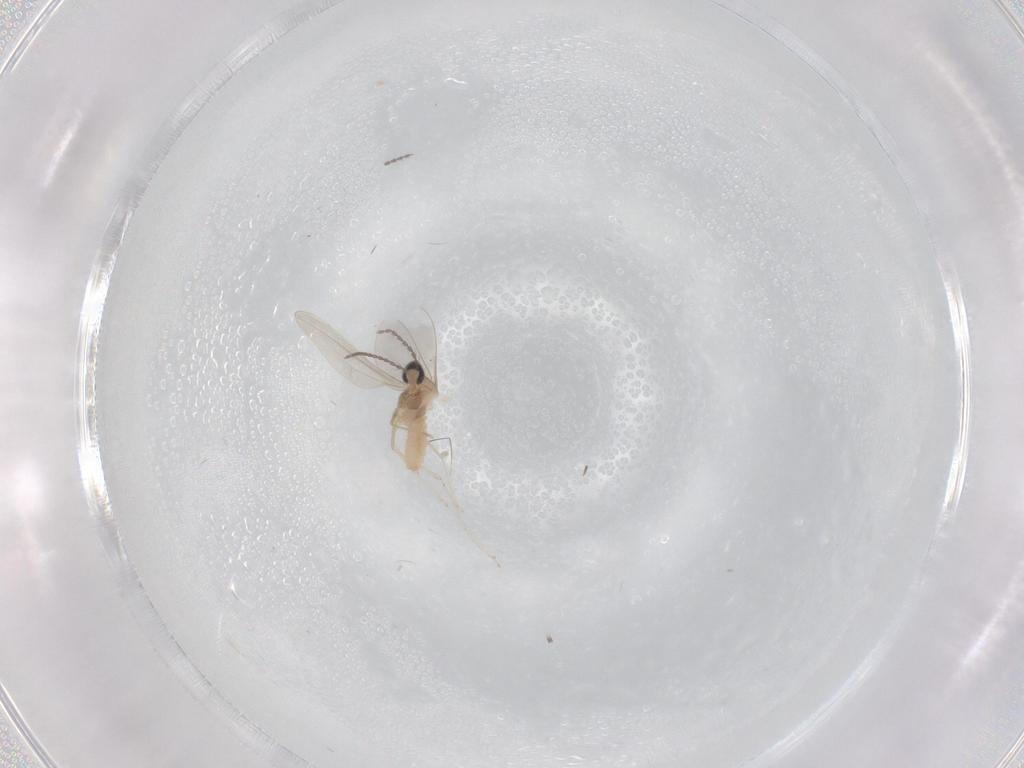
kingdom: Animalia
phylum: Arthropoda
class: Insecta
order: Diptera
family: Cecidomyiidae
